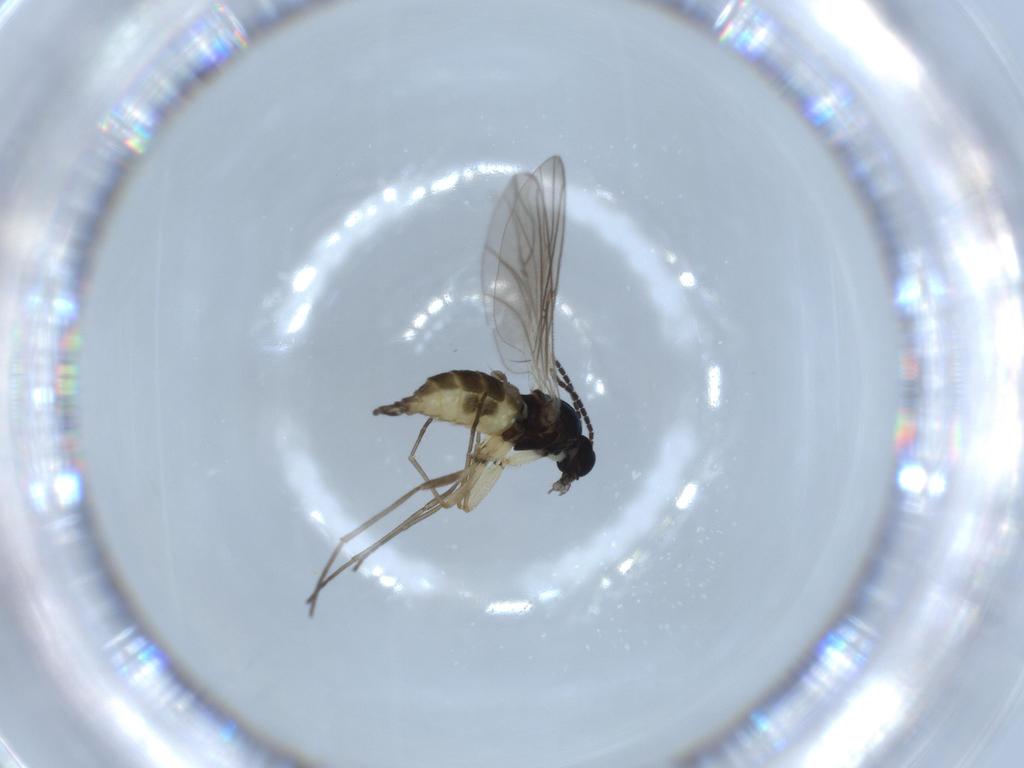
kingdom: Animalia
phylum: Arthropoda
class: Insecta
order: Diptera
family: Sciaridae
